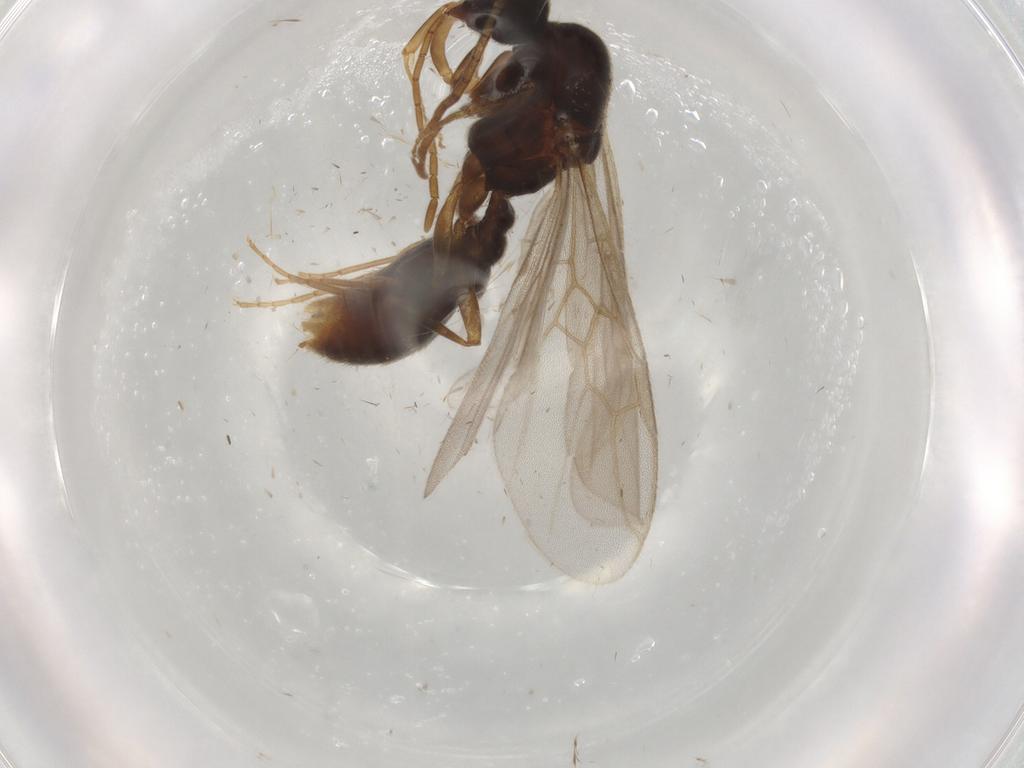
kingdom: Animalia
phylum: Arthropoda
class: Insecta
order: Hymenoptera
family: Formicidae
